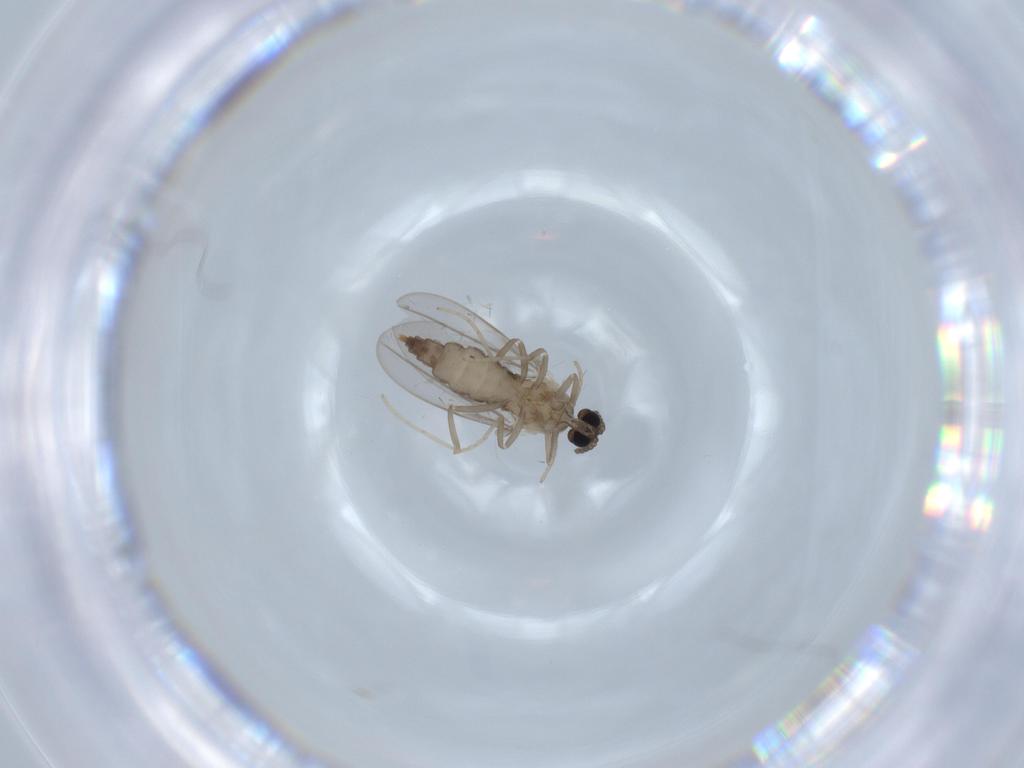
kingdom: Animalia
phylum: Arthropoda
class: Insecta
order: Diptera
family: Cecidomyiidae
